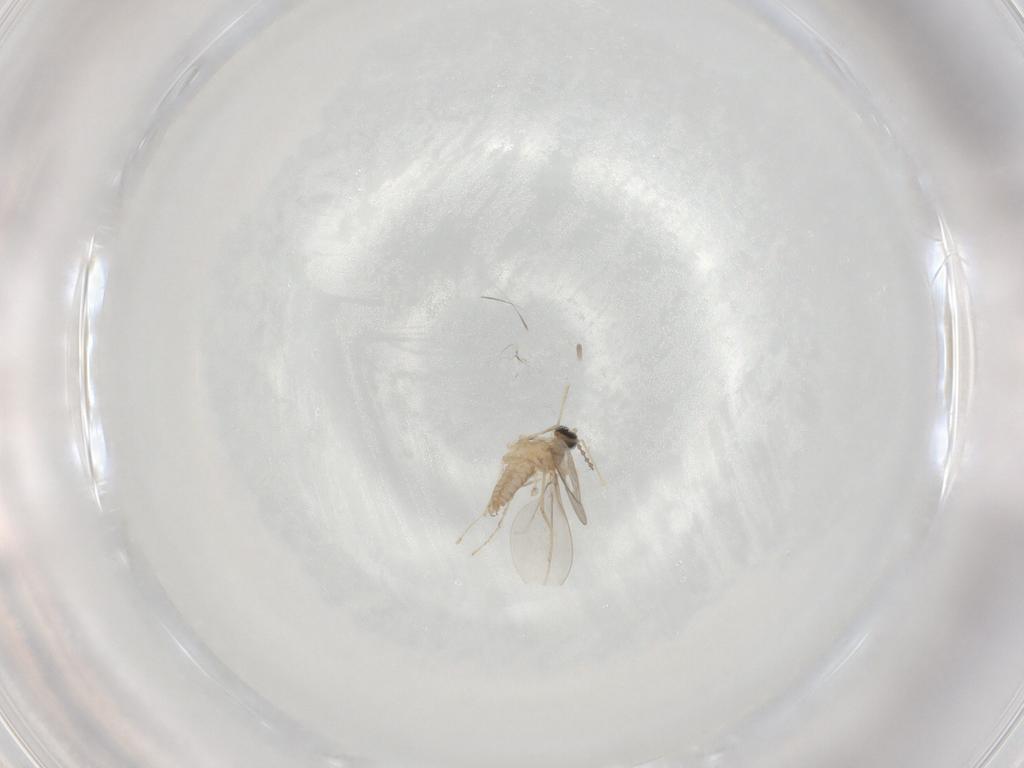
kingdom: Animalia
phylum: Arthropoda
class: Insecta
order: Diptera
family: Cecidomyiidae
